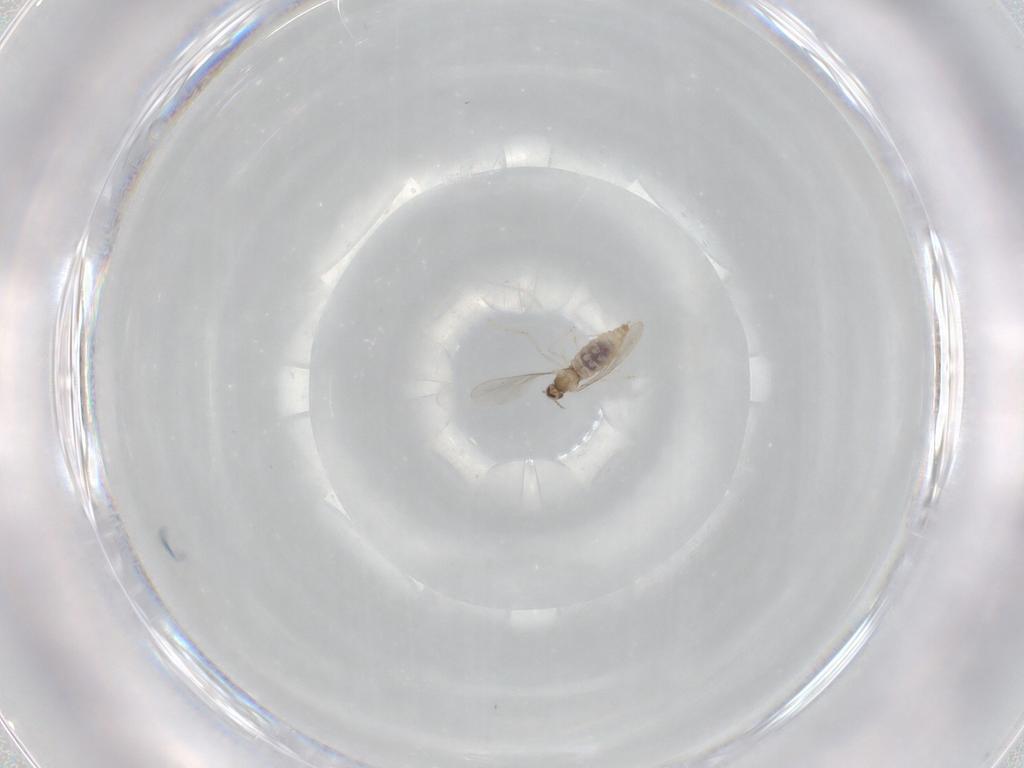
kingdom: Animalia
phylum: Arthropoda
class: Insecta
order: Diptera
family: Cecidomyiidae
